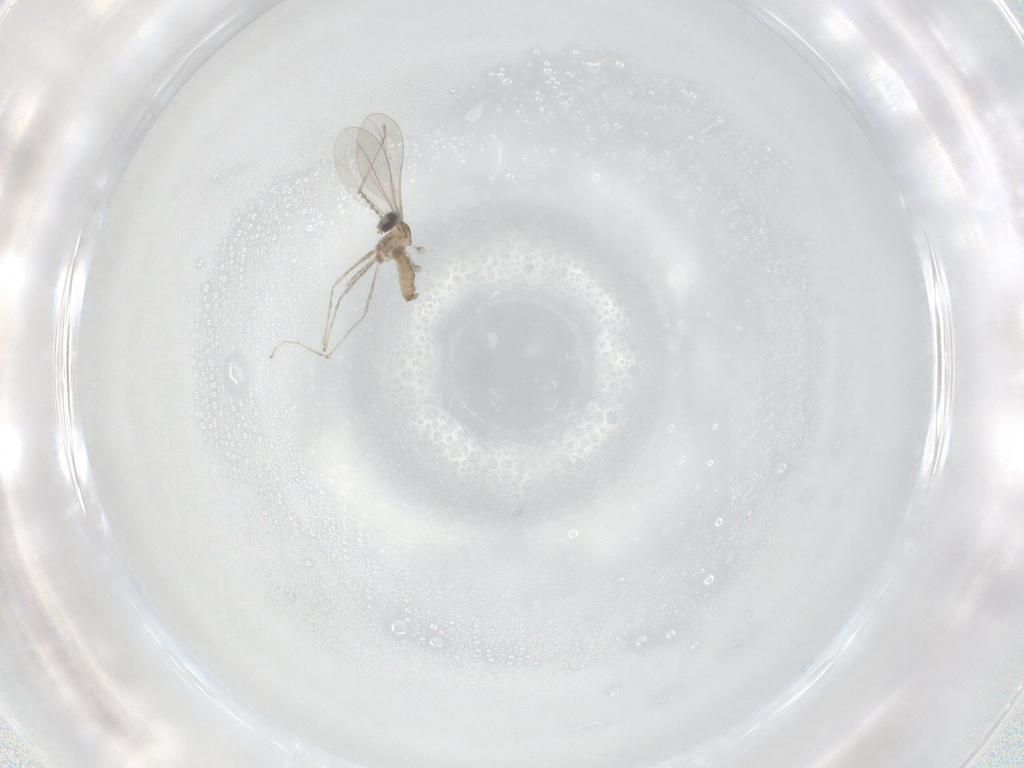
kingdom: Animalia
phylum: Arthropoda
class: Insecta
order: Diptera
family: Cecidomyiidae
